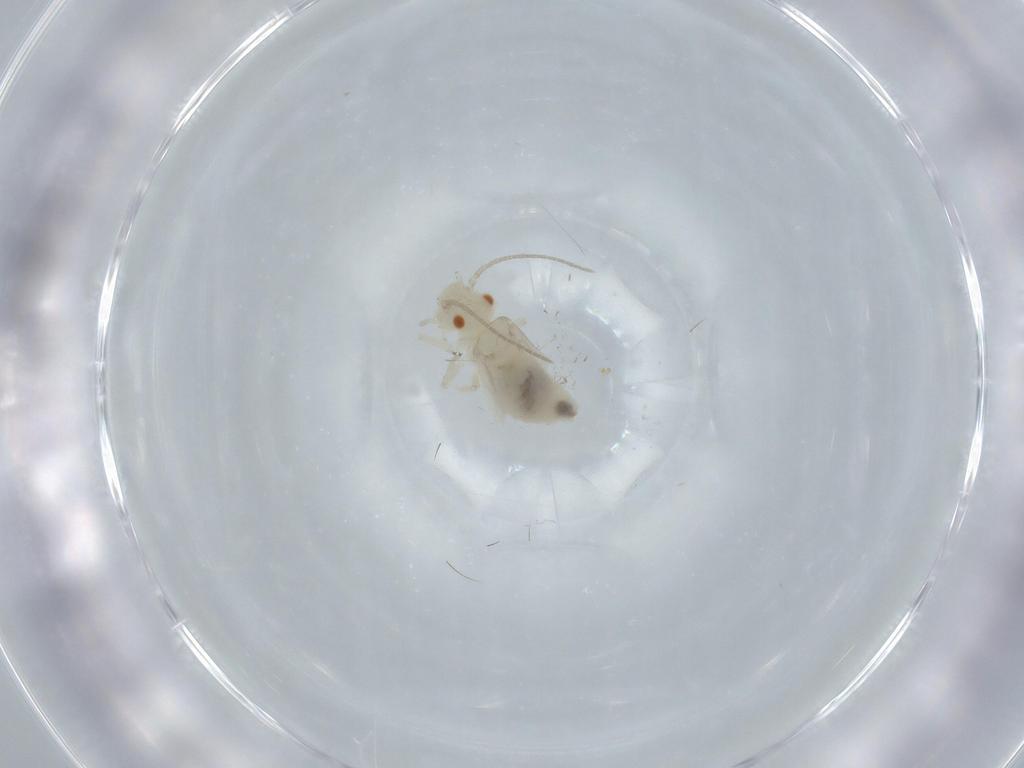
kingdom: Animalia
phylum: Arthropoda
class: Insecta
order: Psocodea
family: Caeciliusidae
